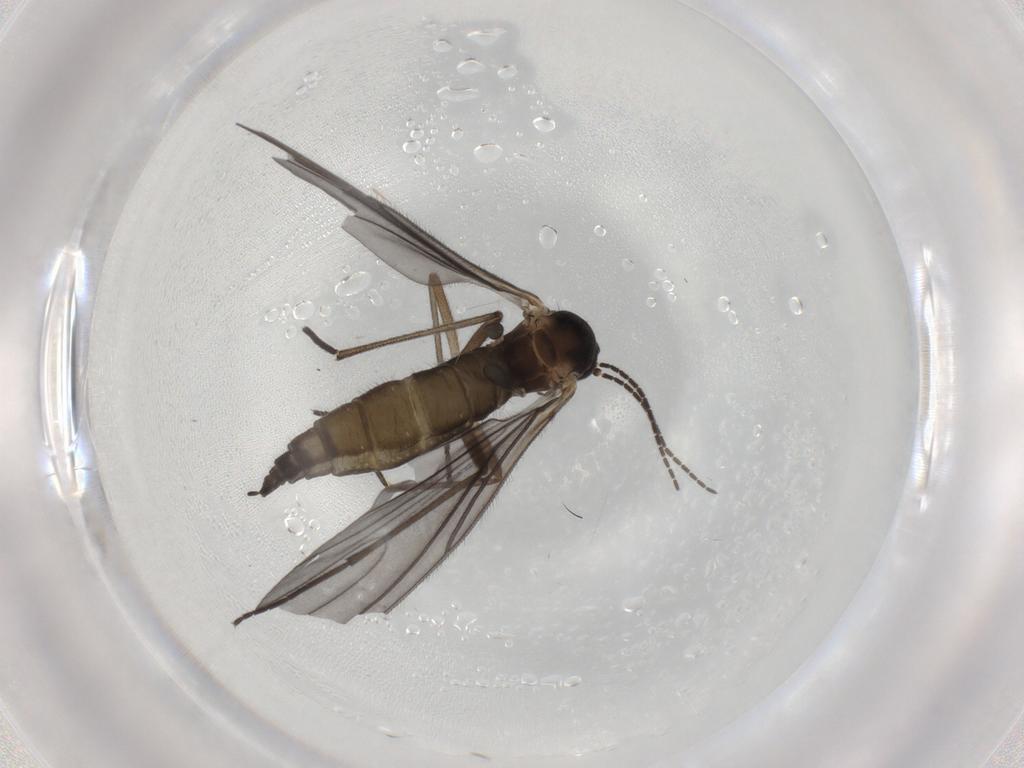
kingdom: Animalia
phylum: Arthropoda
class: Insecta
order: Diptera
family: Sciaridae
